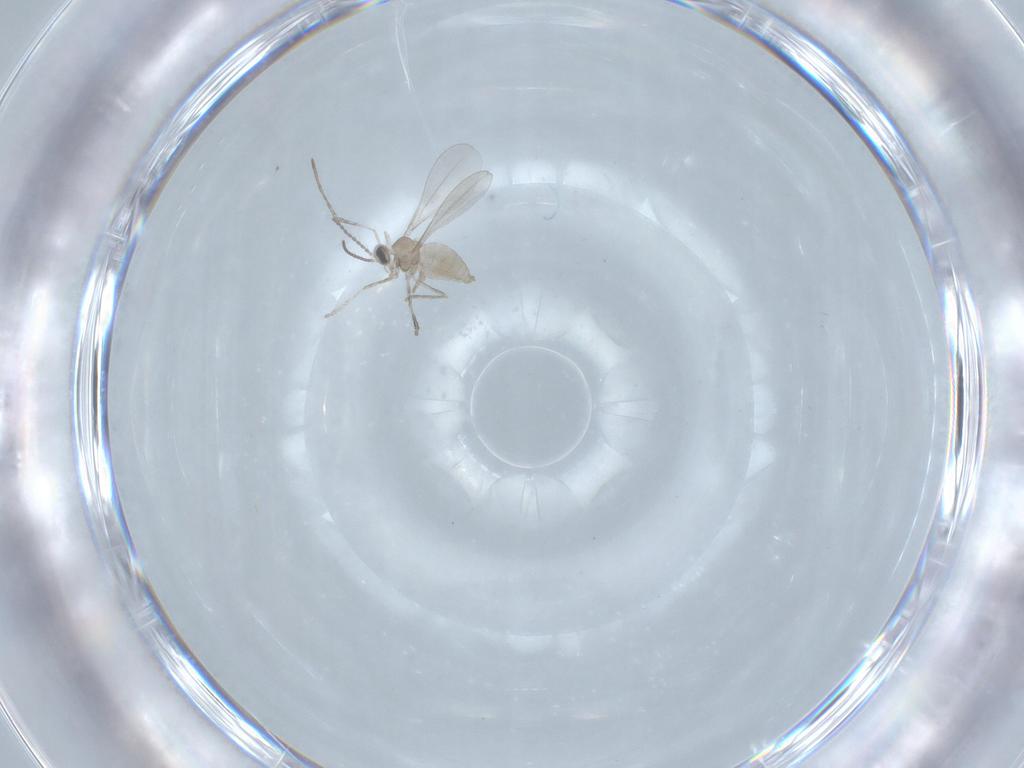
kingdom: Animalia
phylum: Arthropoda
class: Insecta
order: Diptera
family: Cecidomyiidae
